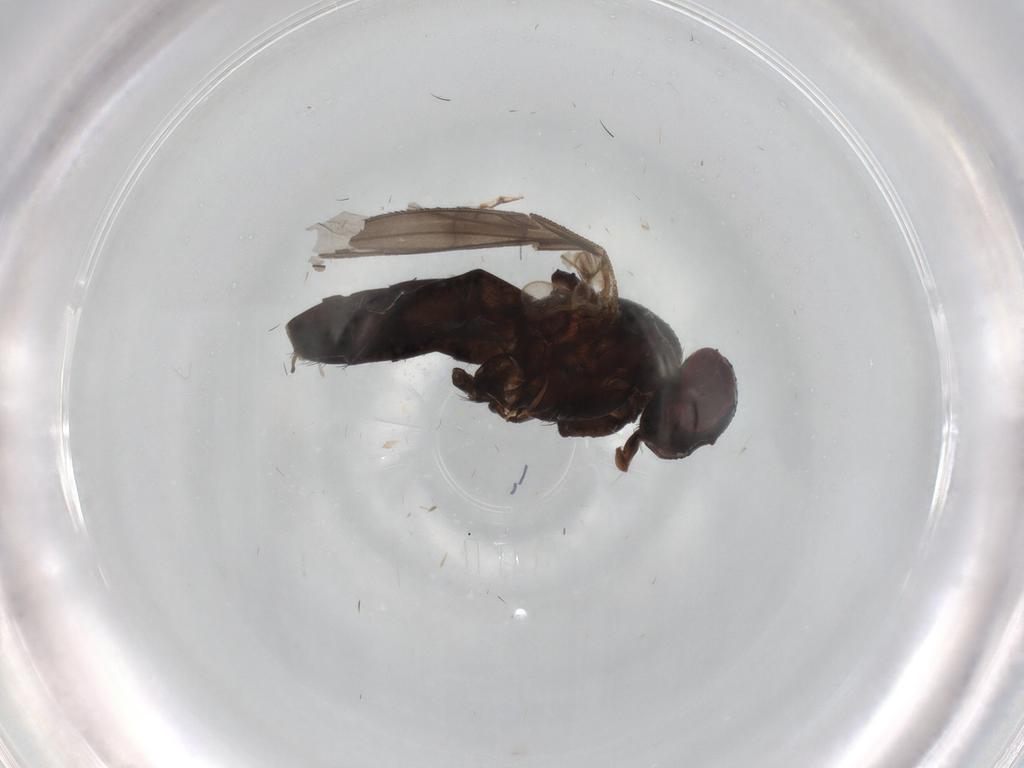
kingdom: Animalia
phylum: Arthropoda
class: Insecta
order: Diptera
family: Tachinidae
